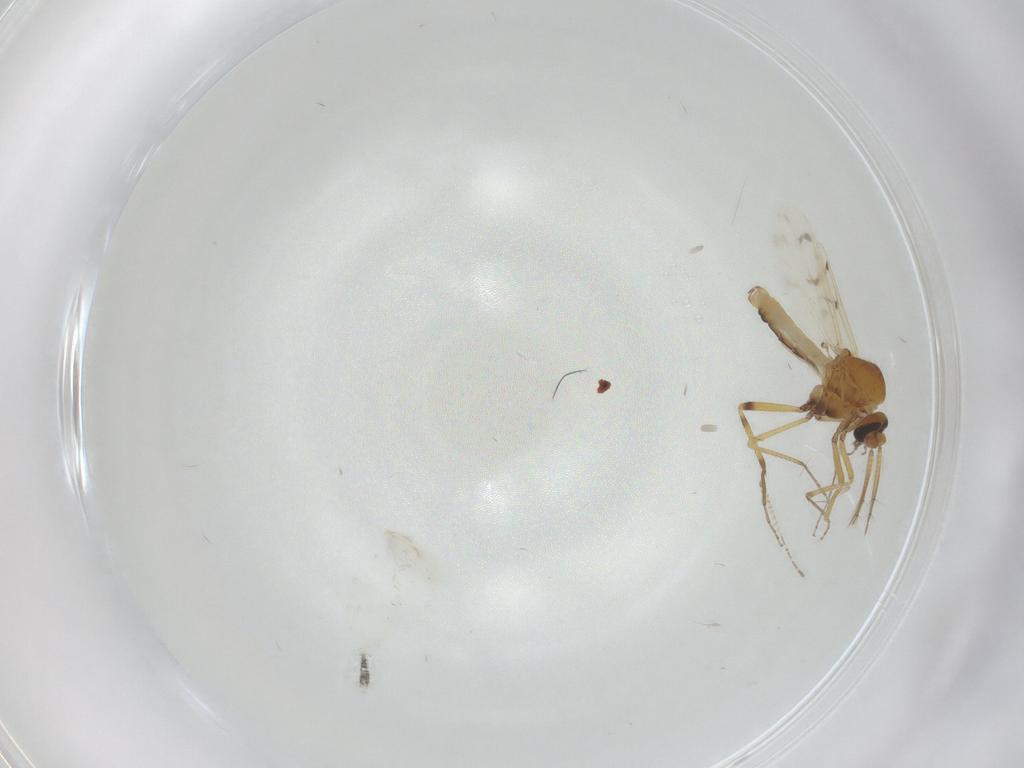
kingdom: Animalia
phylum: Arthropoda
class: Insecta
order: Diptera
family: Ceratopogonidae
